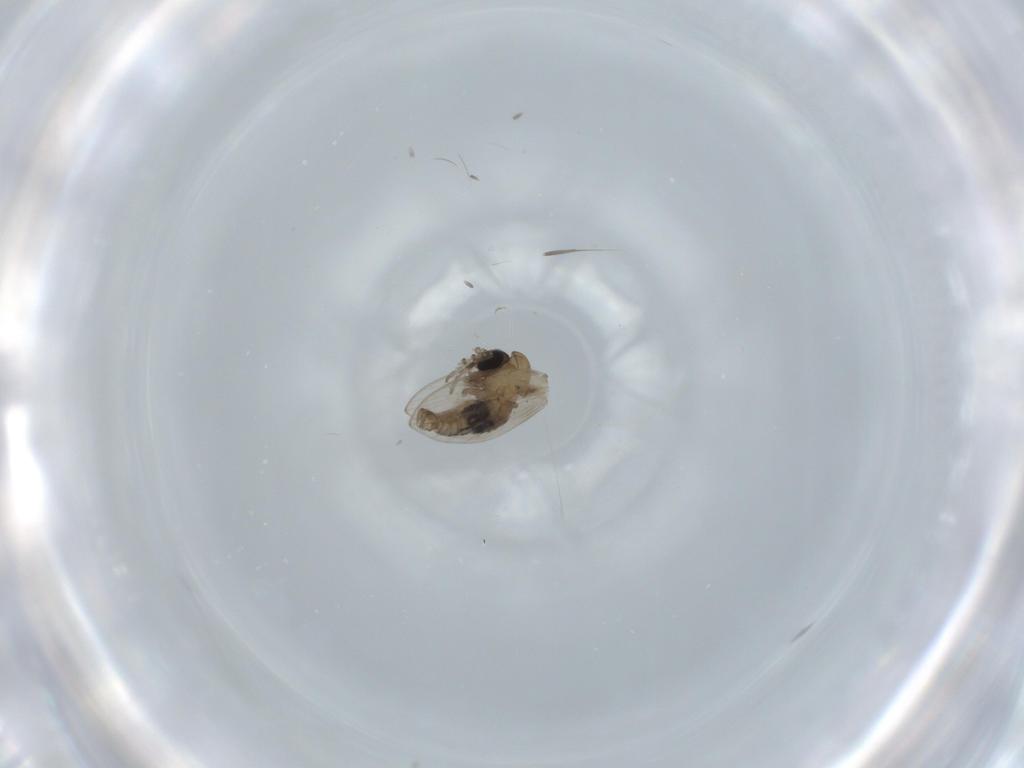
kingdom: Animalia
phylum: Arthropoda
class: Insecta
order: Diptera
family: Psychodidae
